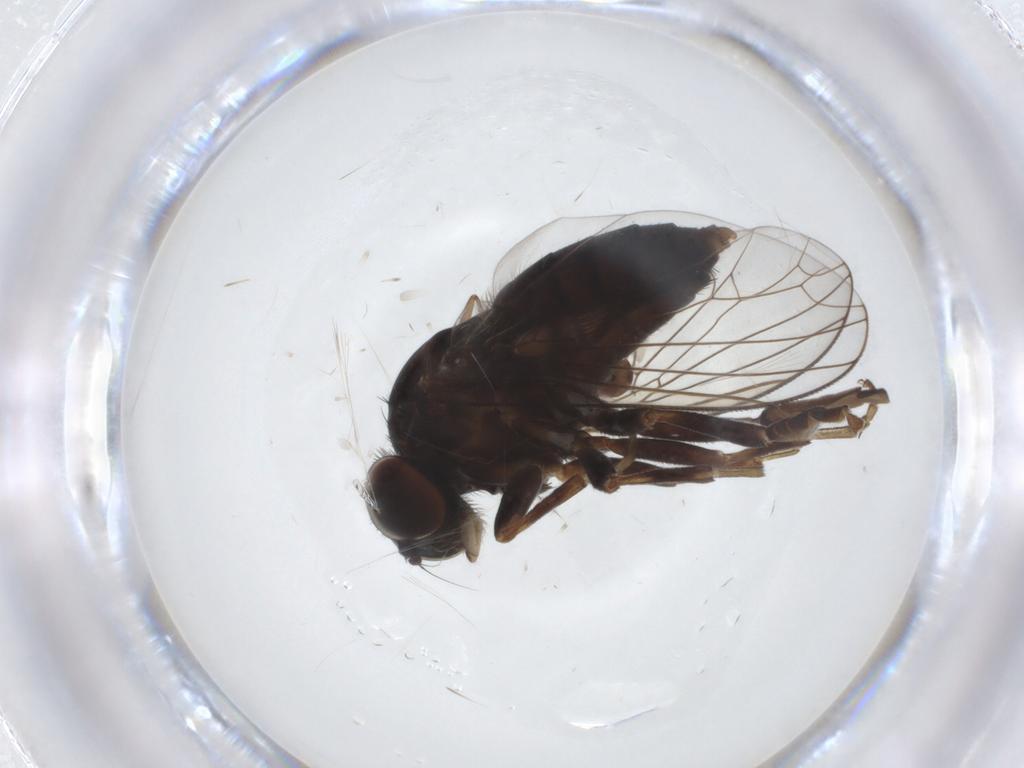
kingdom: Animalia
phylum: Arthropoda
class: Insecta
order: Diptera
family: Platypezidae
